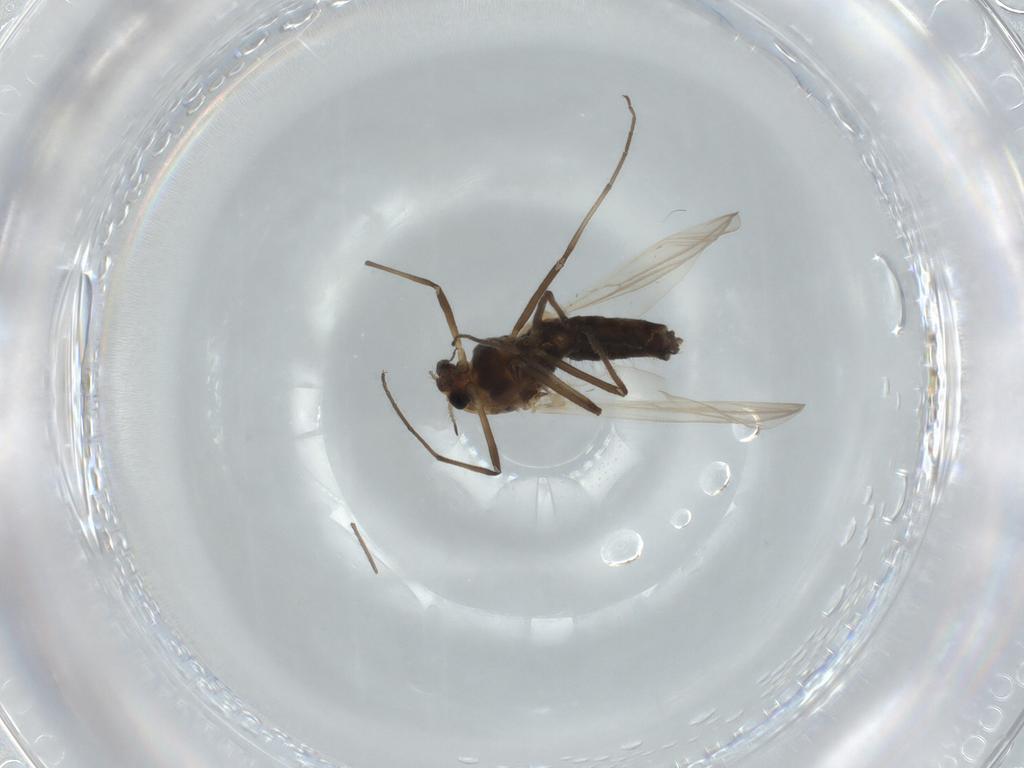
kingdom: Animalia
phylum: Arthropoda
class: Insecta
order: Diptera
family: Chironomidae
